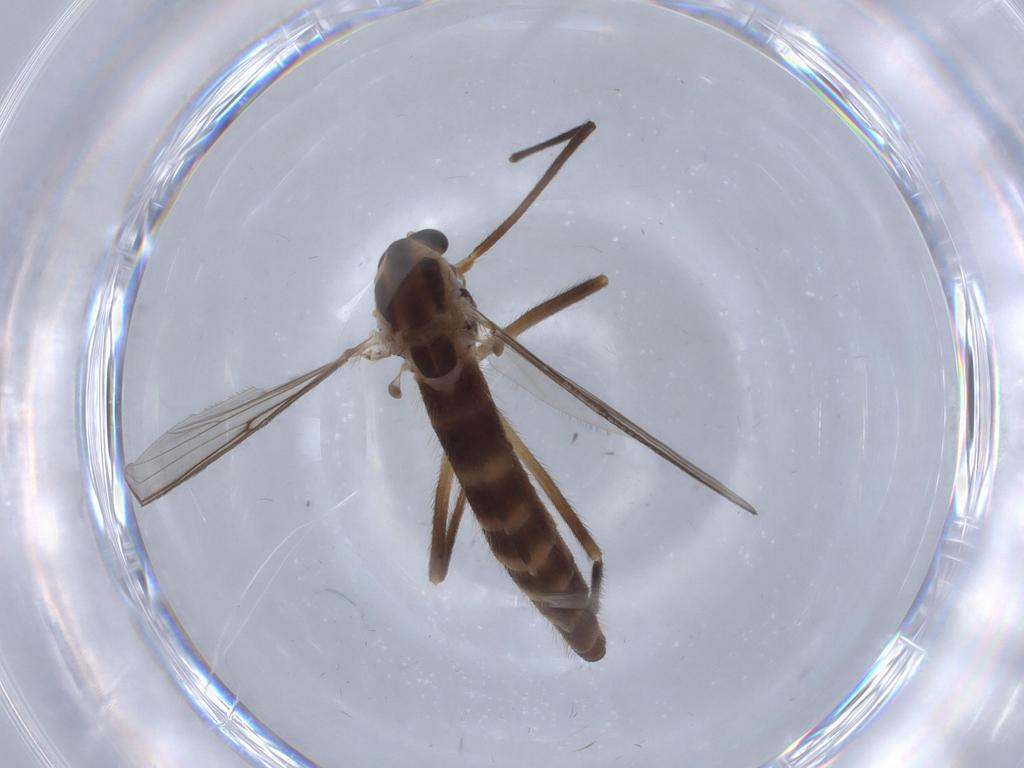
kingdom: Animalia
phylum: Arthropoda
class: Insecta
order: Diptera
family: Chironomidae
